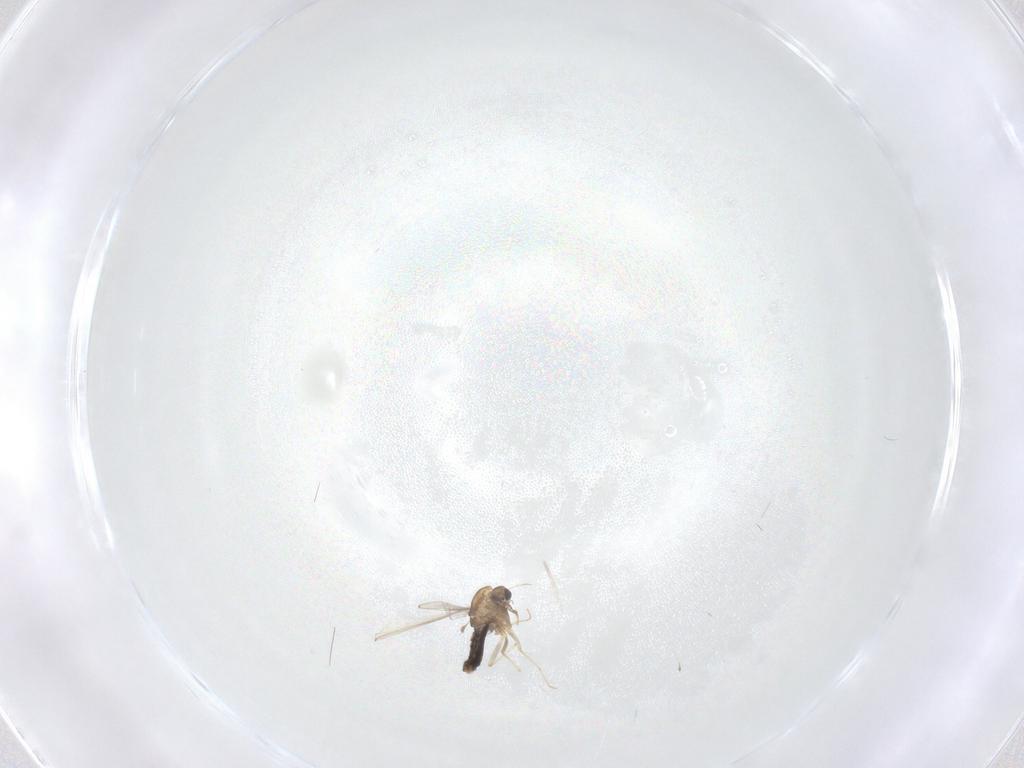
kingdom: Animalia
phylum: Arthropoda
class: Insecta
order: Diptera
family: Chironomidae
